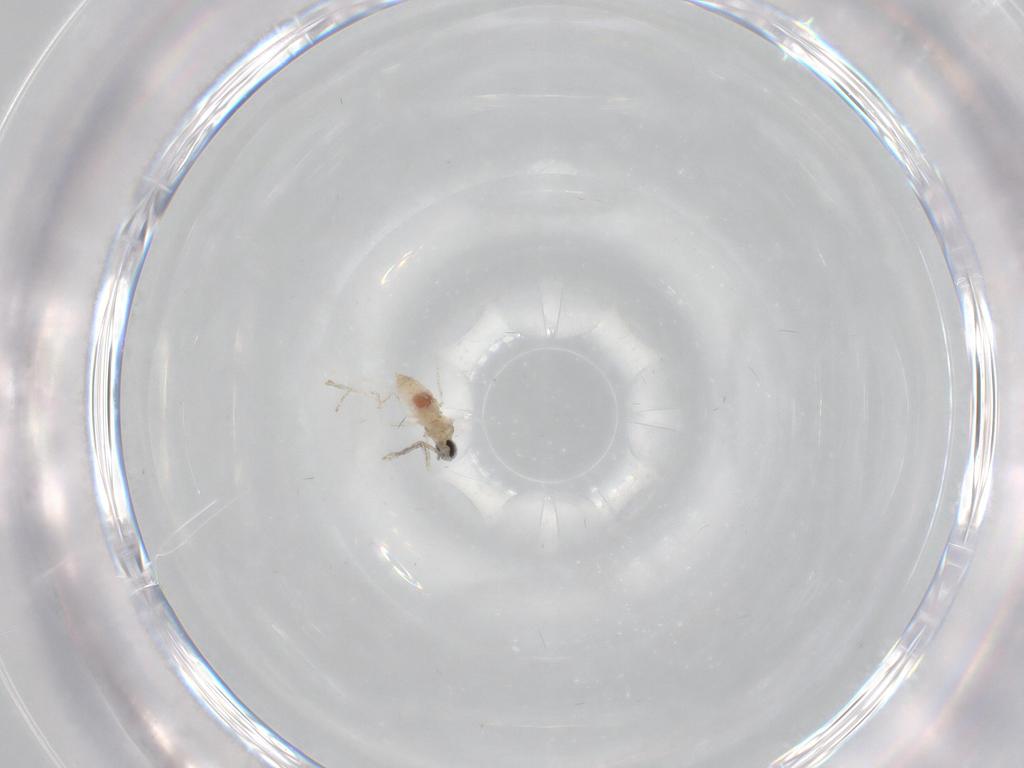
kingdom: Animalia
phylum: Arthropoda
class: Insecta
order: Diptera
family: Cecidomyiidae
